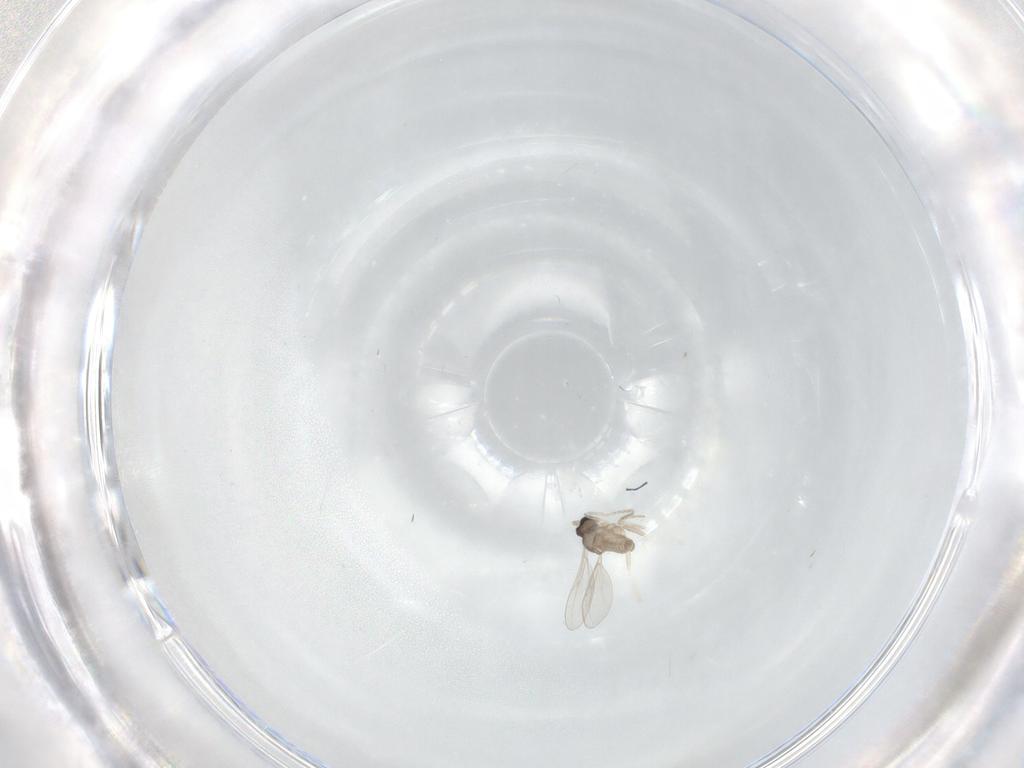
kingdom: Animalia
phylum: Arthropoda
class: Insecta
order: Diptera
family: Cecidomyiidae
